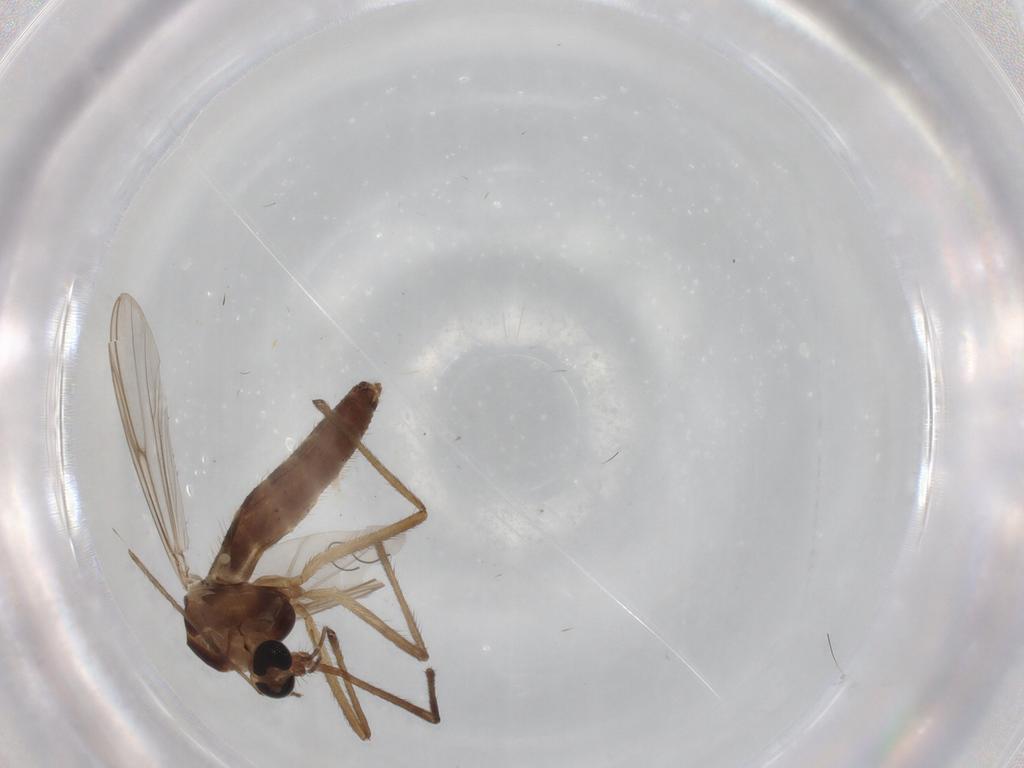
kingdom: Animalia
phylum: Arthropoda
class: Insecta
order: Diptera
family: Chironomidae
